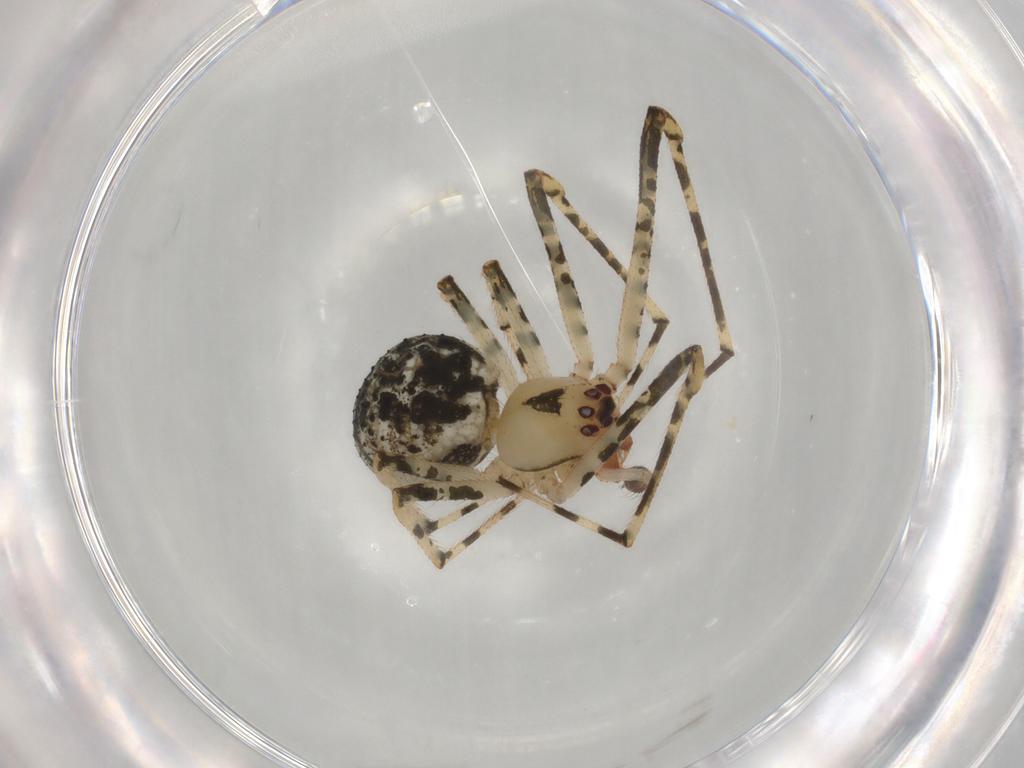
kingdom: Animalia
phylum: Arthropoda
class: Arachnida
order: Araneae
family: Theridiidae
